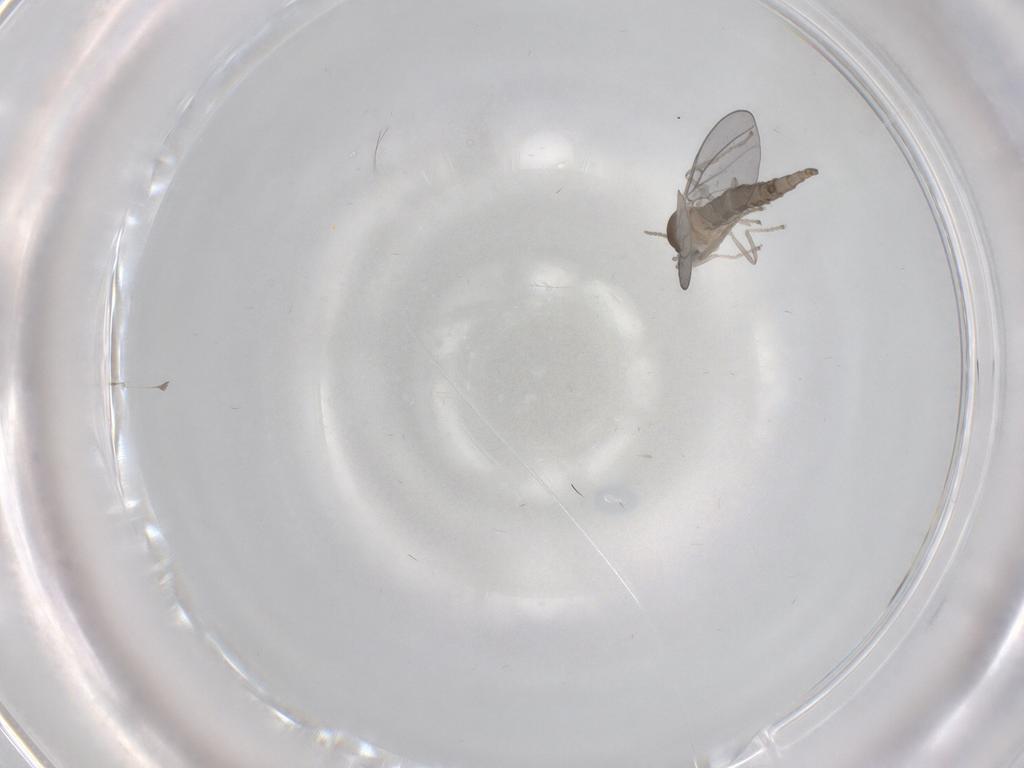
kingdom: Animalia
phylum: Arthropoda
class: Insecta
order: Diptera
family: Cecidomyiidae
